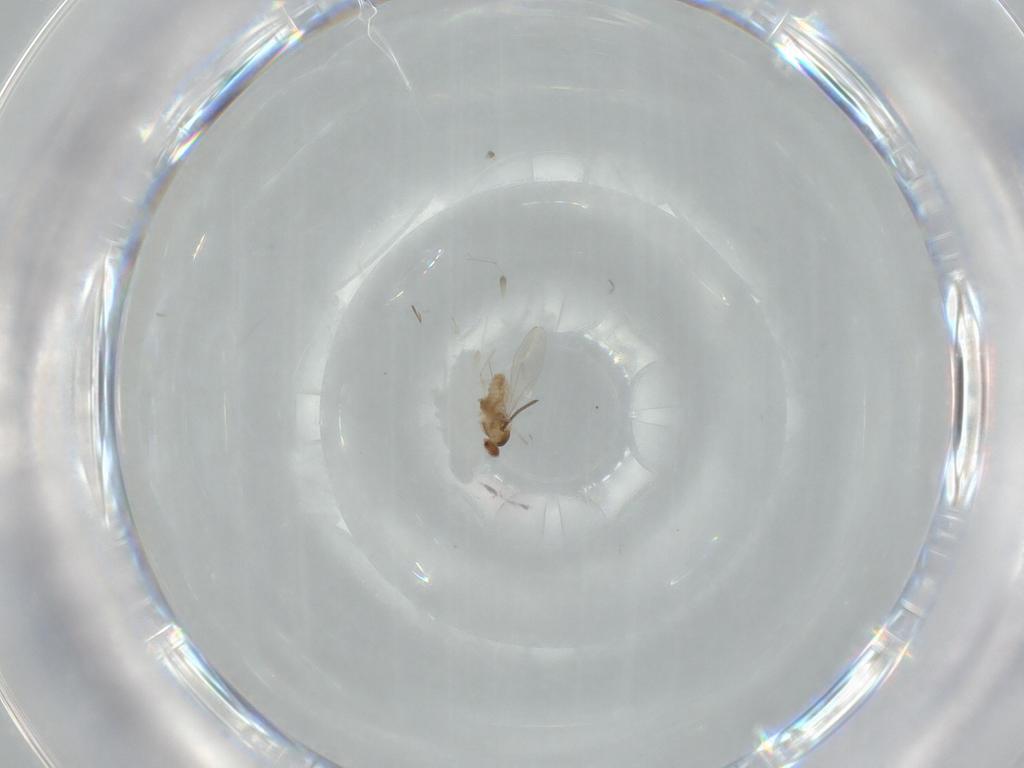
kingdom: Animalia
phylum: Arthropoda
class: Insecta
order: Diptera
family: Cecidomyiidae
